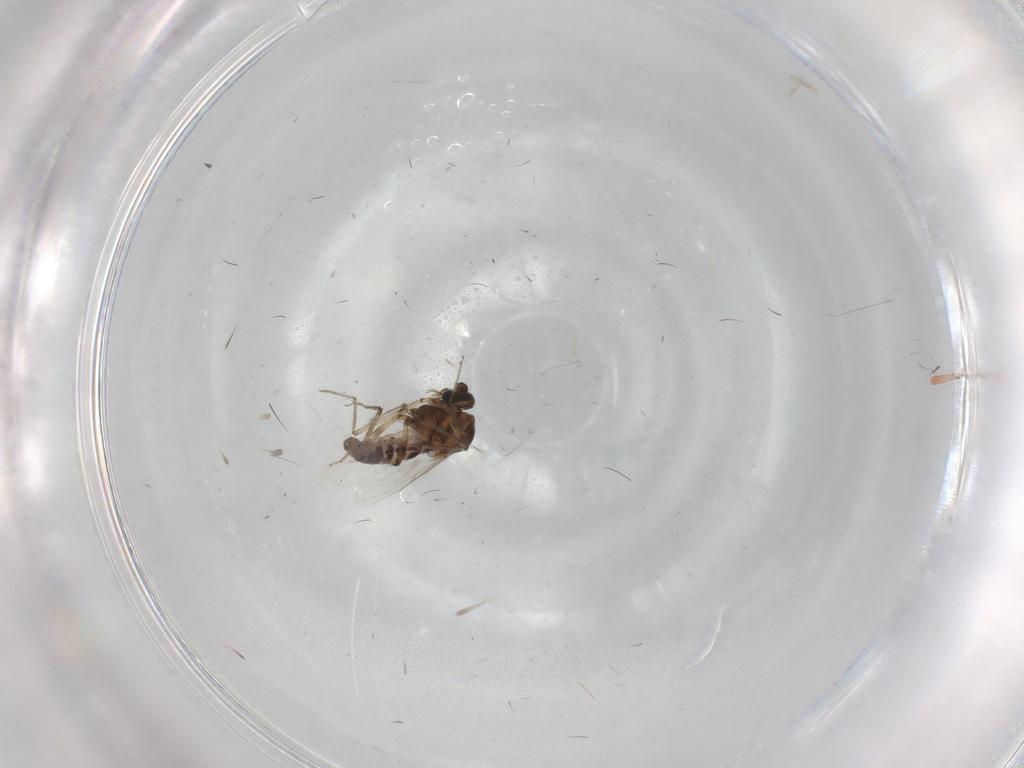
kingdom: Animalia
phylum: Arthropoda
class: Insecta
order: Diptera
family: Ceratopogonidae
